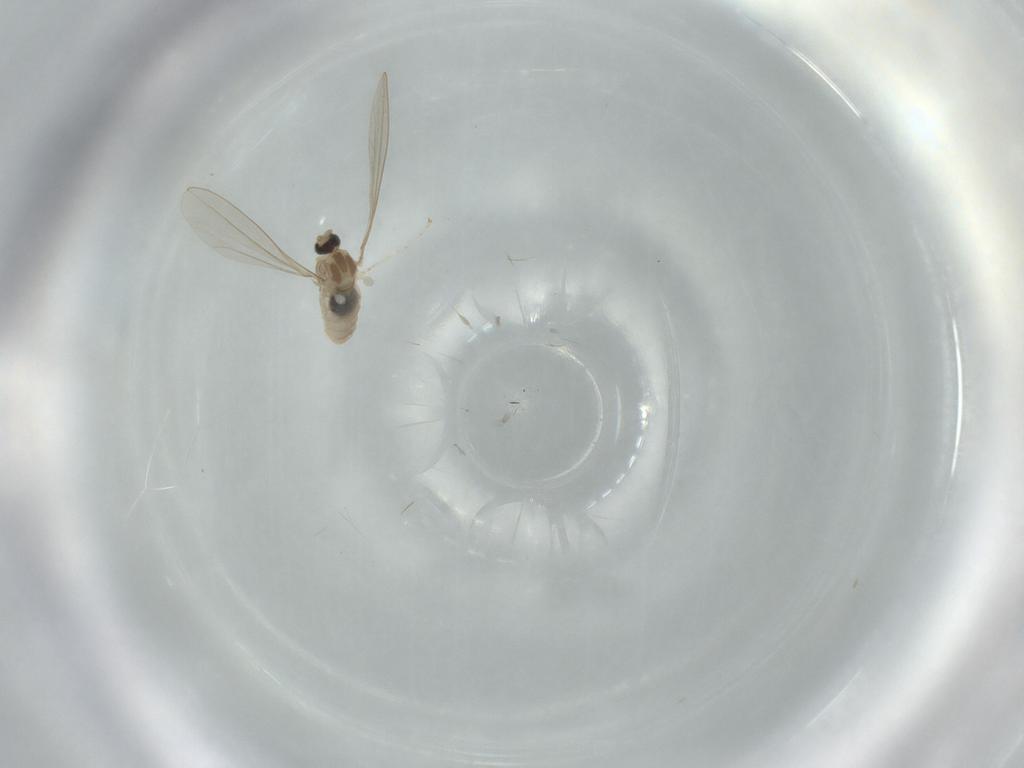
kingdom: Animalia
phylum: Arthropoda
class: Insecta
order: Diptera
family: Cecidomyiidae
